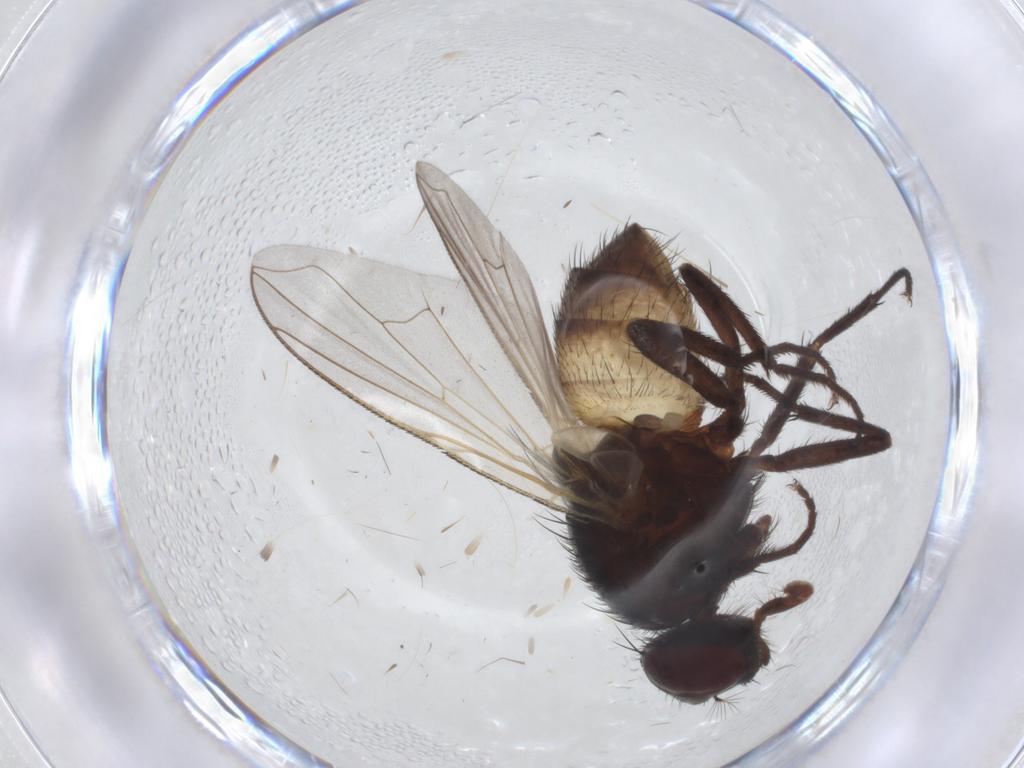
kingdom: Animalia
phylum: Arthropoda
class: Insecta
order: Diptera
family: Muscidae
